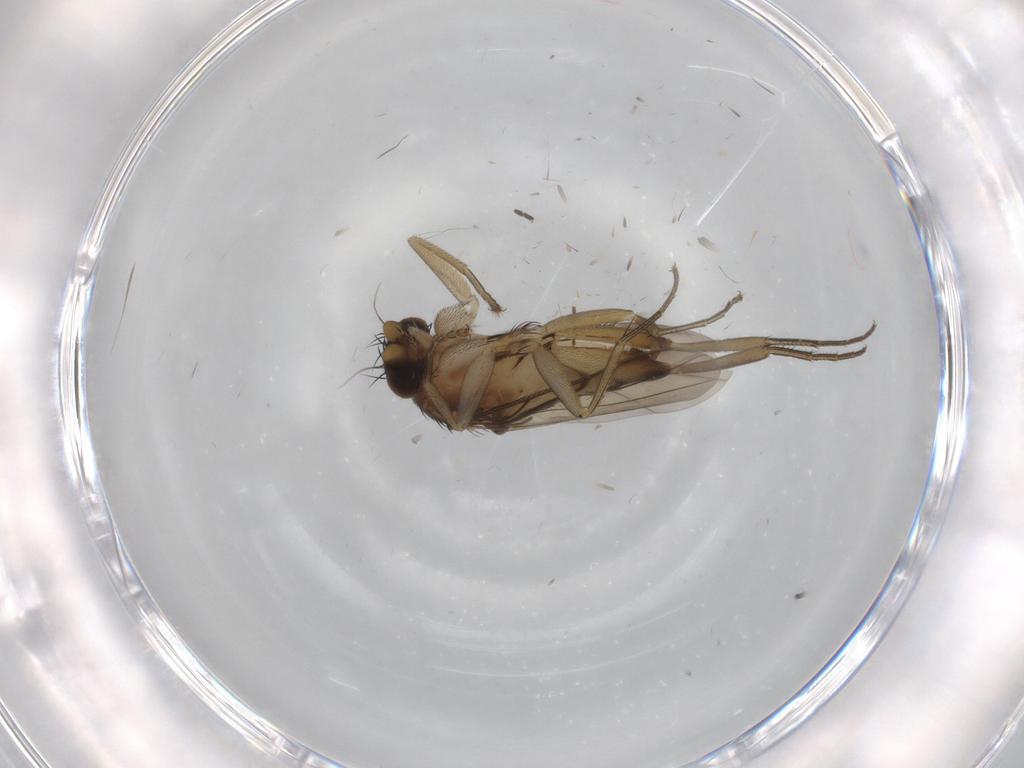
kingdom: Animalia
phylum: Arthropoda
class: Insecta
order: Diptera
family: Phoridae
